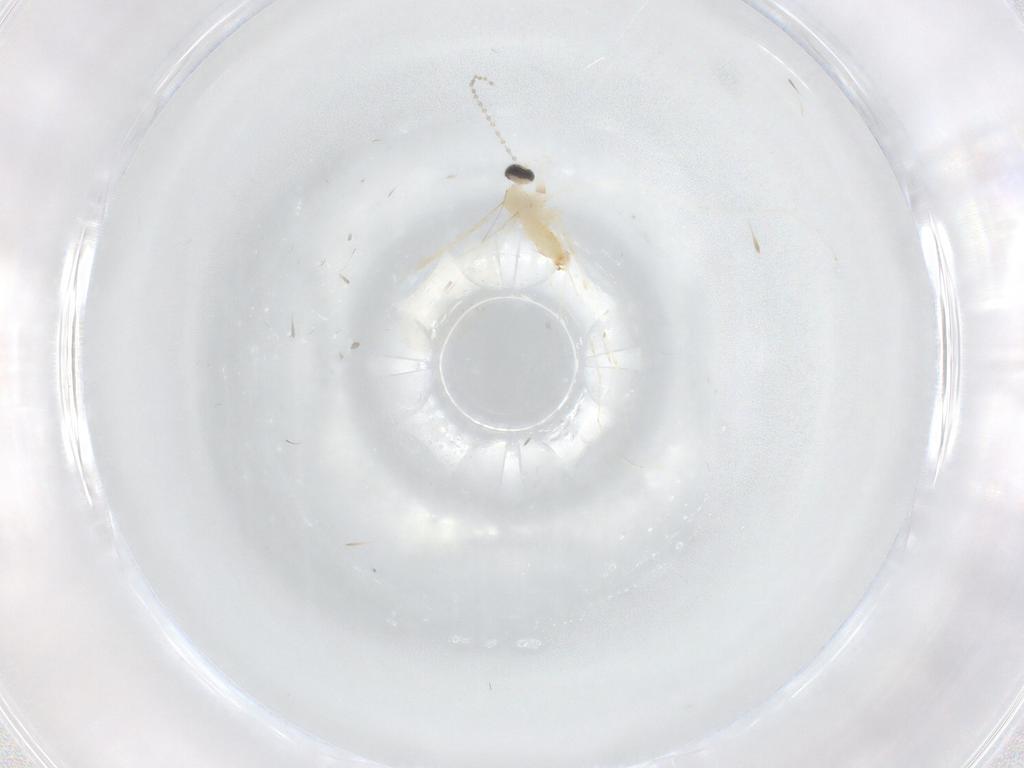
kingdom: Animalia
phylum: Arthropoda
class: Insecta
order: Diptera
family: Cecidomyiidae
